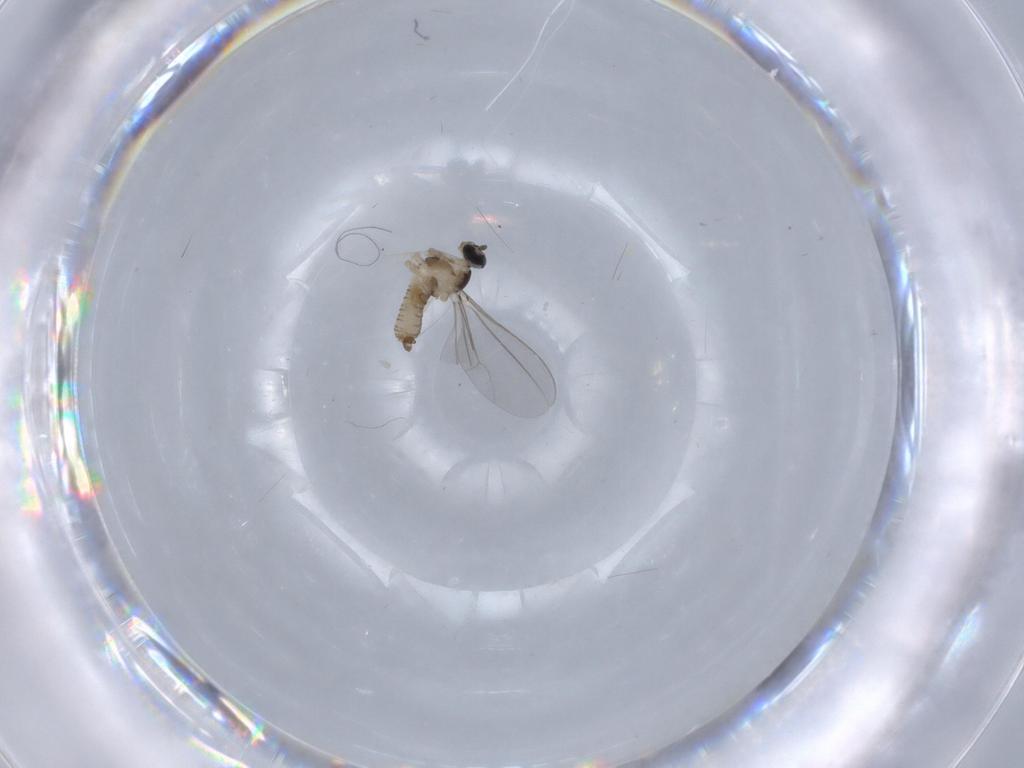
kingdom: Animalia
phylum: Arthropoda
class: Insecta
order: Diptera
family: Cecidomyiidae
